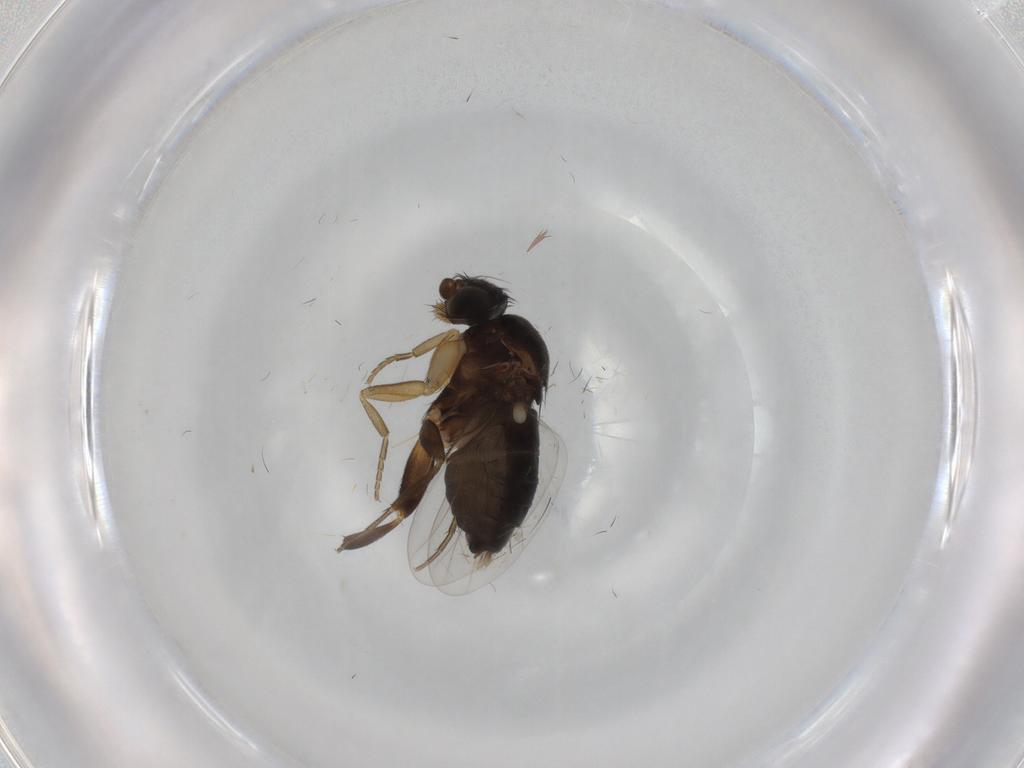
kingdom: Animalia
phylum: Arthropoda
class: Insecta
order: Diptera
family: Phoridae
